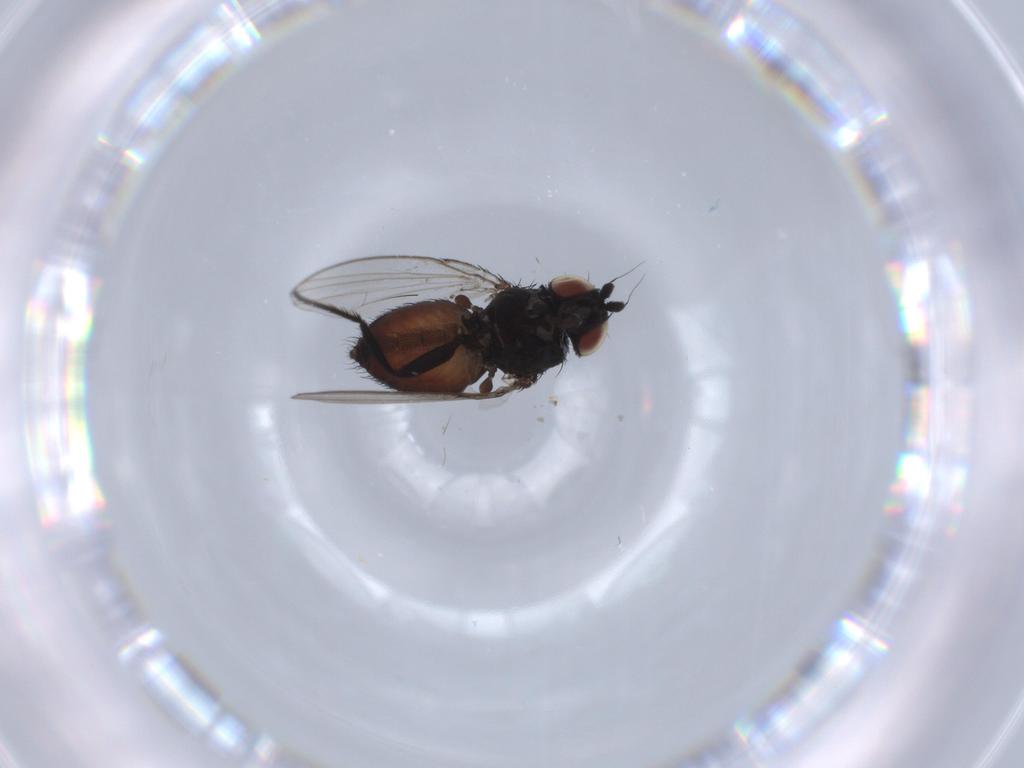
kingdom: Animalia
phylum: Arthropoda
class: Insecta
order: Diptera
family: Milichiidae
